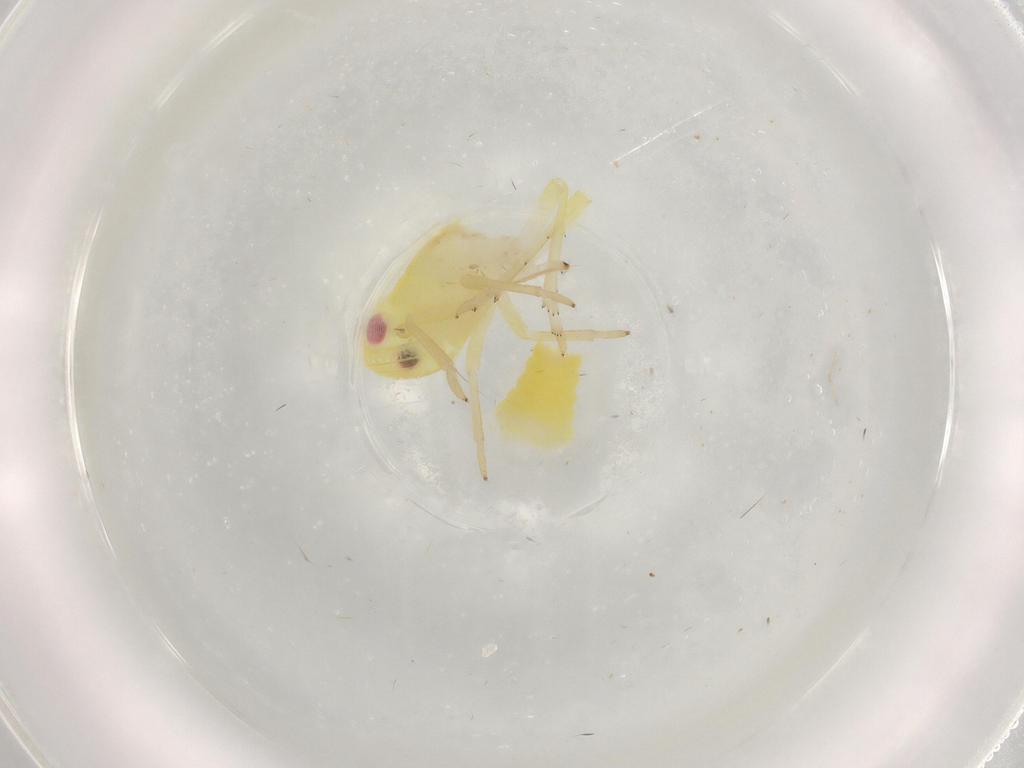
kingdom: Animalia
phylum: Arthropoda
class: Insecta
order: Hemiptera
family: Tropiduchidae
